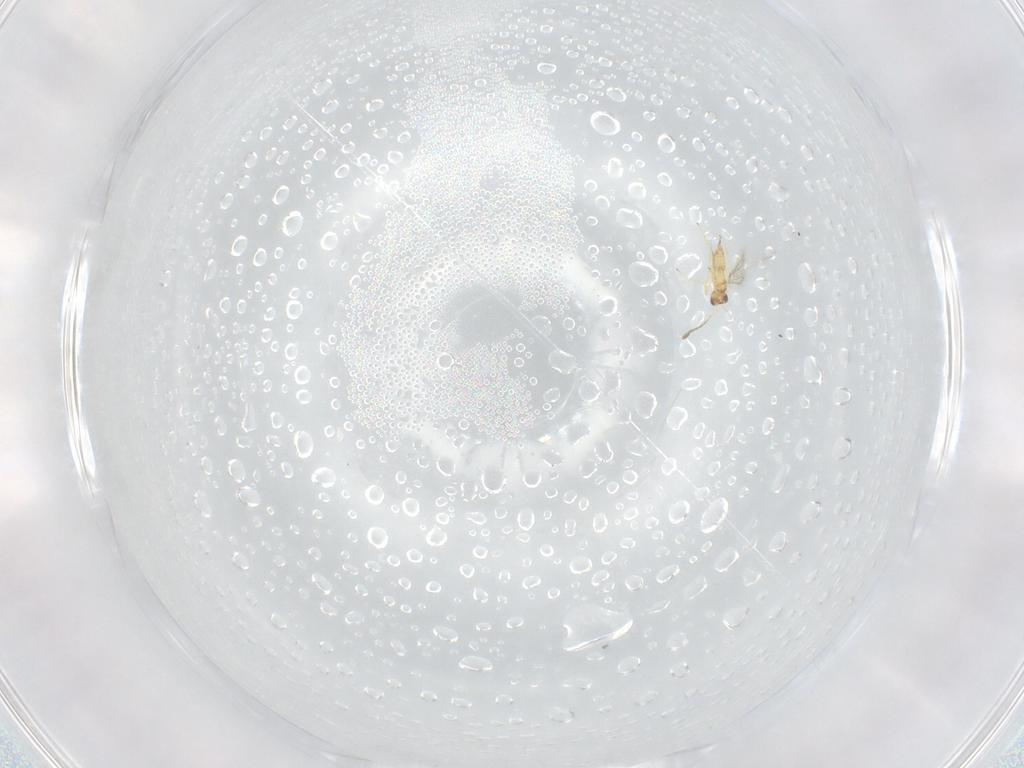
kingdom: Animalia
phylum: Arthropoda
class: Insecta
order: Hymenoptera
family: Mymaridae
